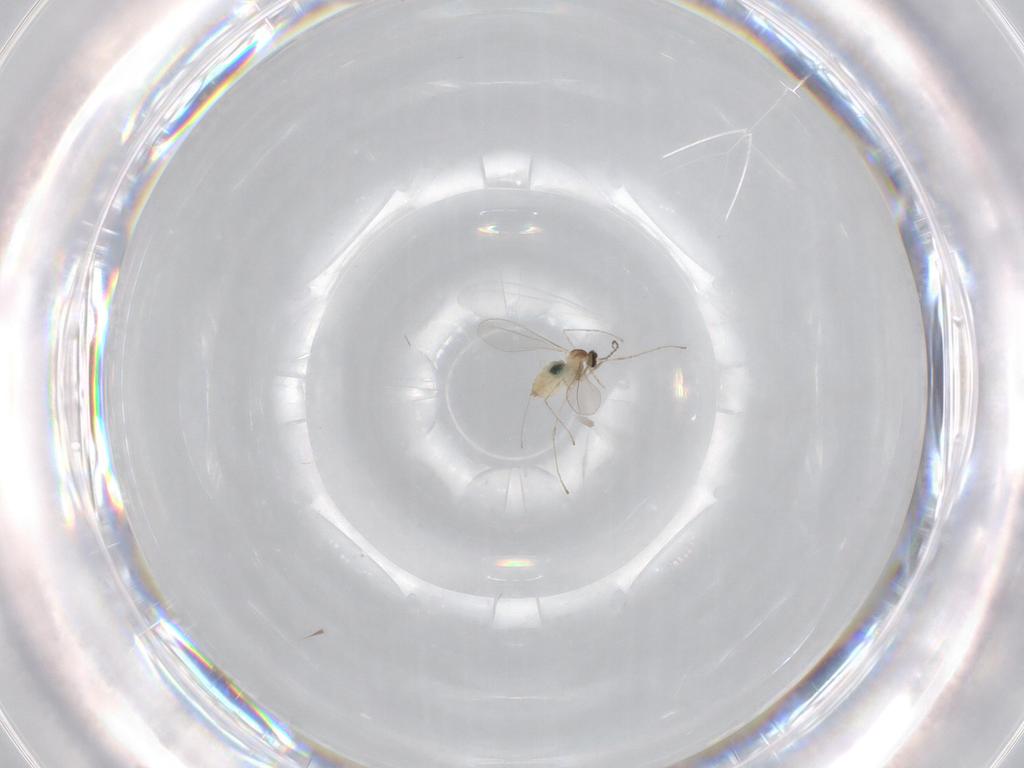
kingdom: Animalia
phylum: Arthropoda
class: Insecta
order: Diptera
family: Cecidomyiidae
